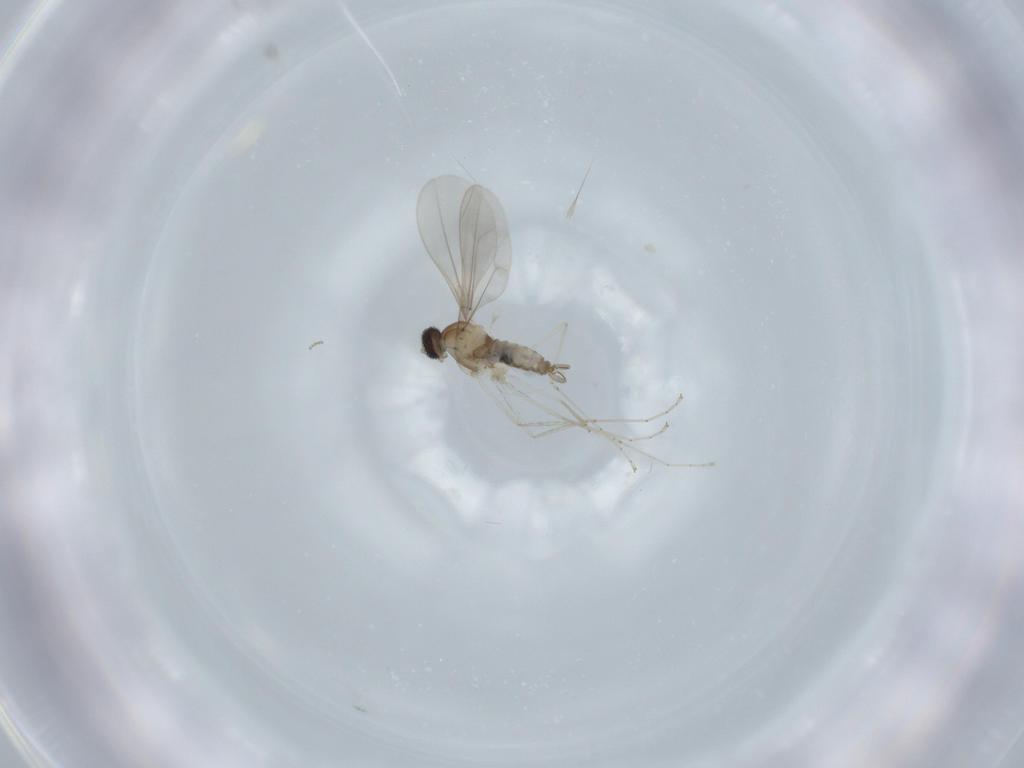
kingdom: Animalia
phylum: Arthropoda
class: Insecta
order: Diptera
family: Cecidomyiidae
